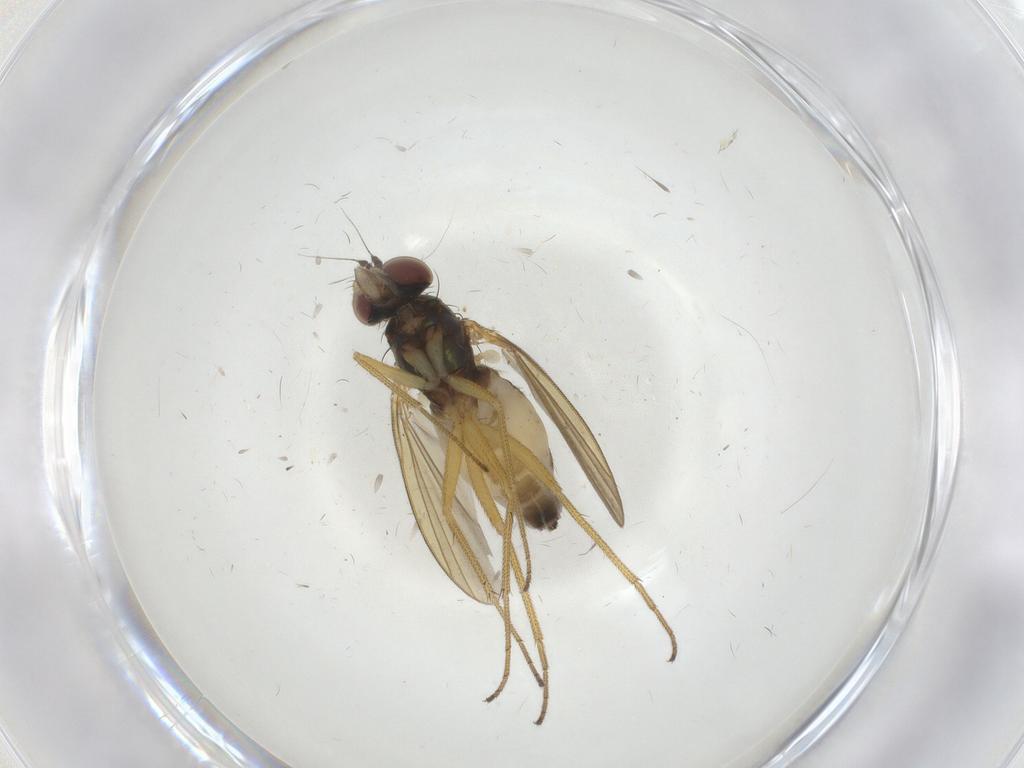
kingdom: Animalia
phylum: Arthropoda
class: Insecta
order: Diptera
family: Dolichopodidae
